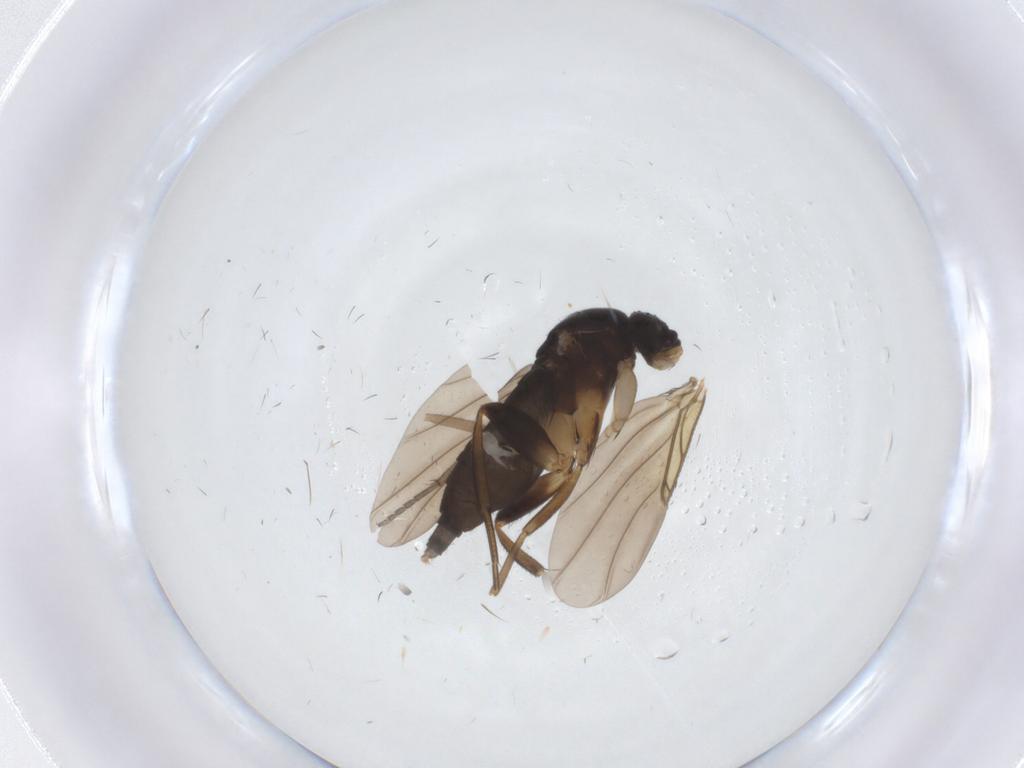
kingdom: Animalia
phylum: Arthropoda
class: Insecta
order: Diptera
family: Phoridae
